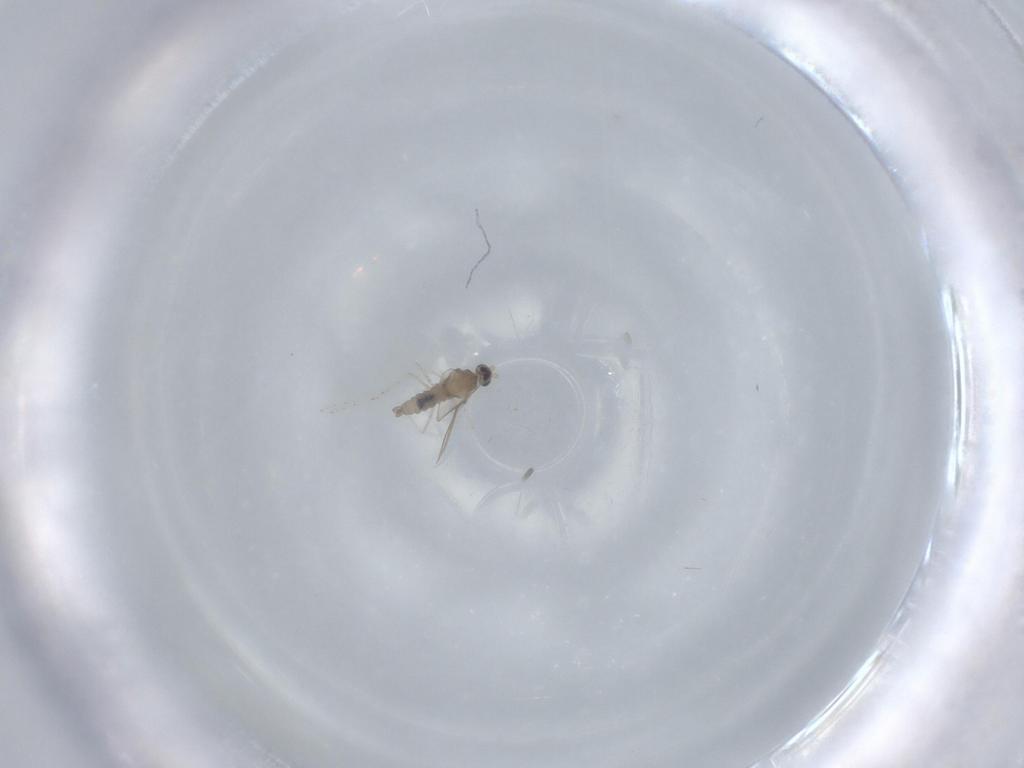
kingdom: Animalia
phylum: Arthropoda
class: Insecta
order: Diptera
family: Cecidomyiidae
